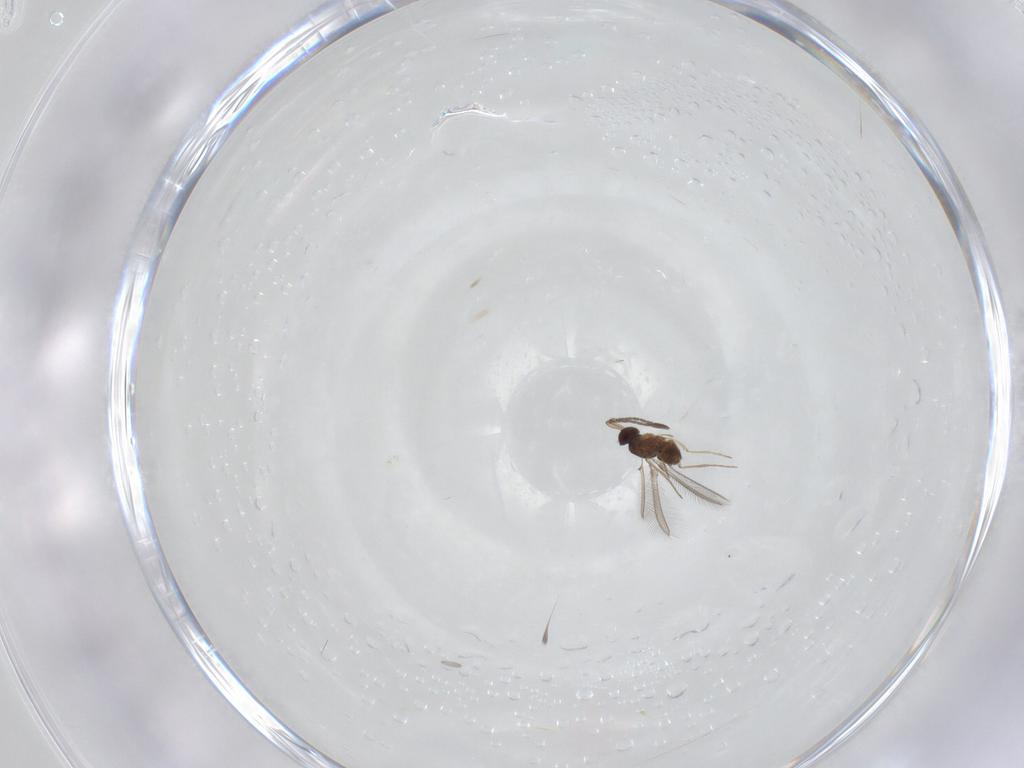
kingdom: Animalia
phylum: Arthropoda
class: Insecta
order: Hymenoptera
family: Mymaridae
